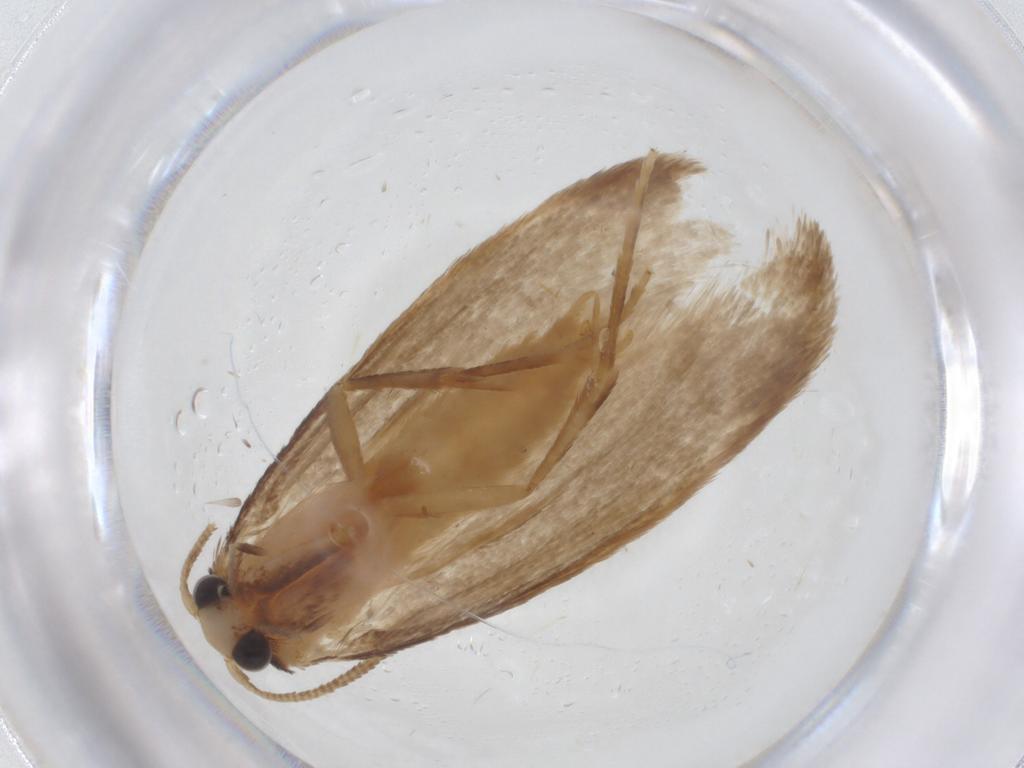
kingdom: Animalia
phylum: Arthropoda
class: Insecta
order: Lepidoptera
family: Tineidae
